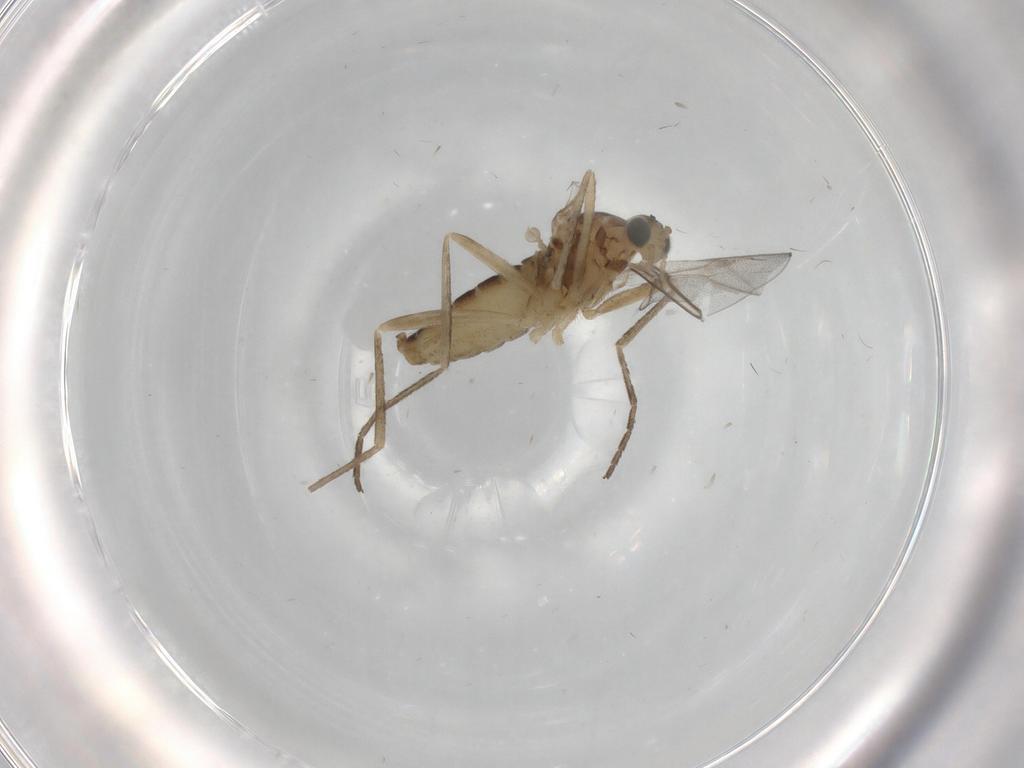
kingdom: Animalia
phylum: Arthropoda
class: Insecta
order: Diptera
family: Cecidomyiidae
